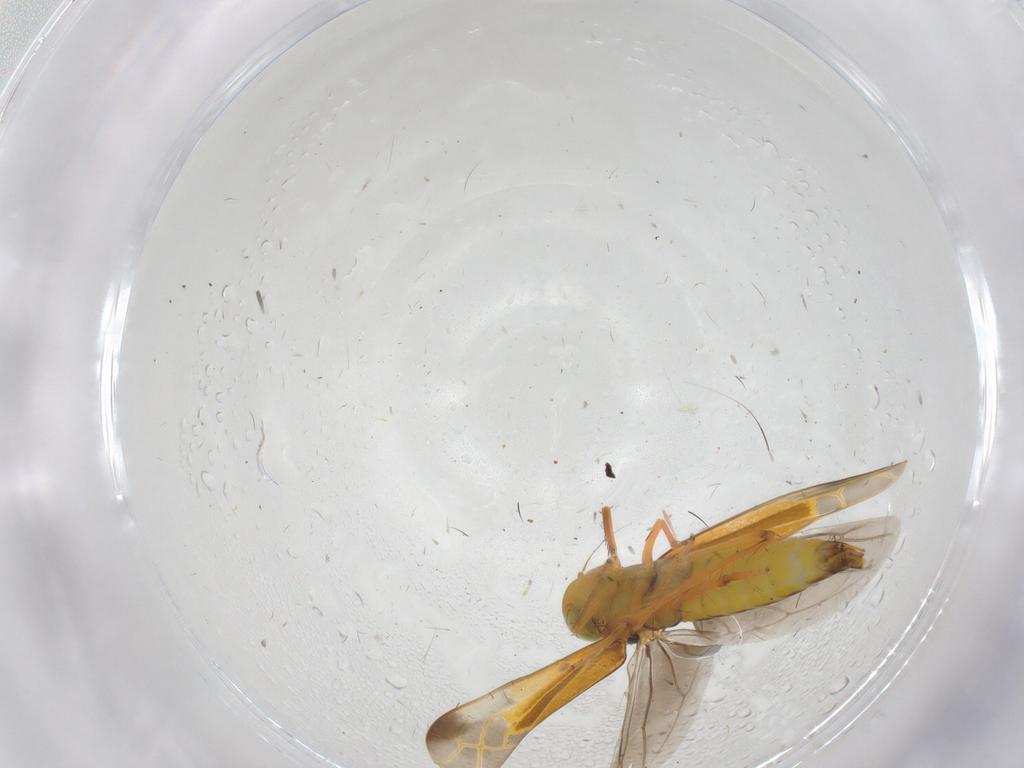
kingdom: Animalia
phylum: Arthropoda
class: Insecta
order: Hemiptera
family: Cicadellidae
